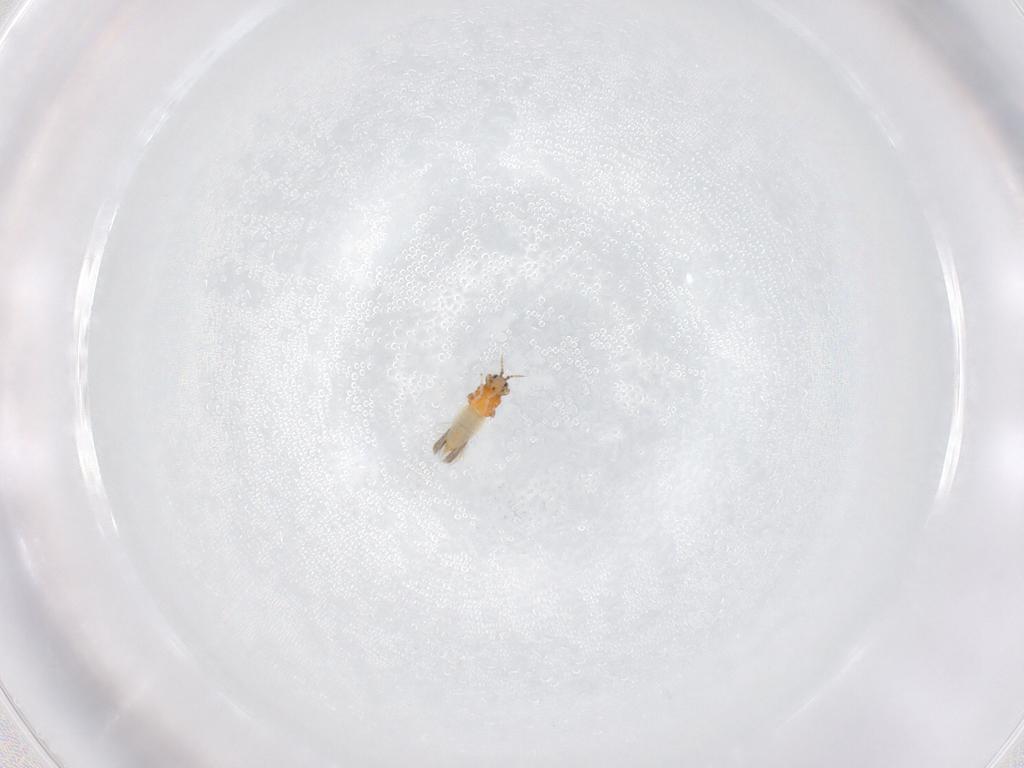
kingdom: Animalia
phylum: Arthropoda
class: Insecta
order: Thysanoptera
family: Thripidae
